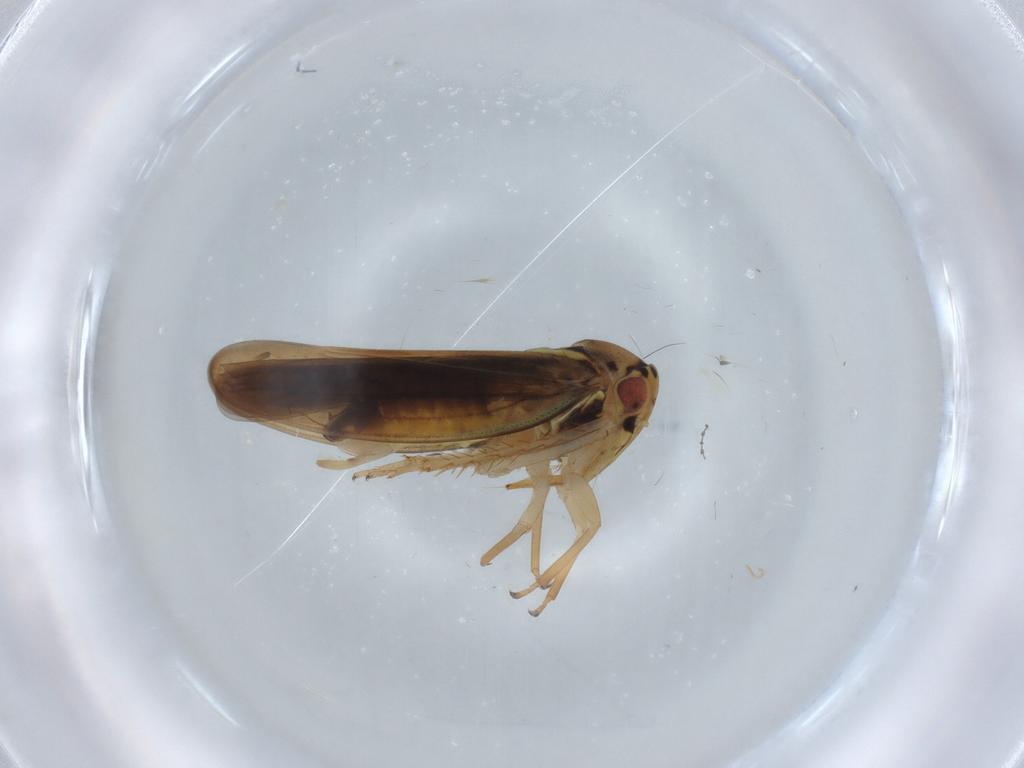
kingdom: Animalia
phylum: Arthropoda
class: Insecta
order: Hemiptera
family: Cicadellidae
